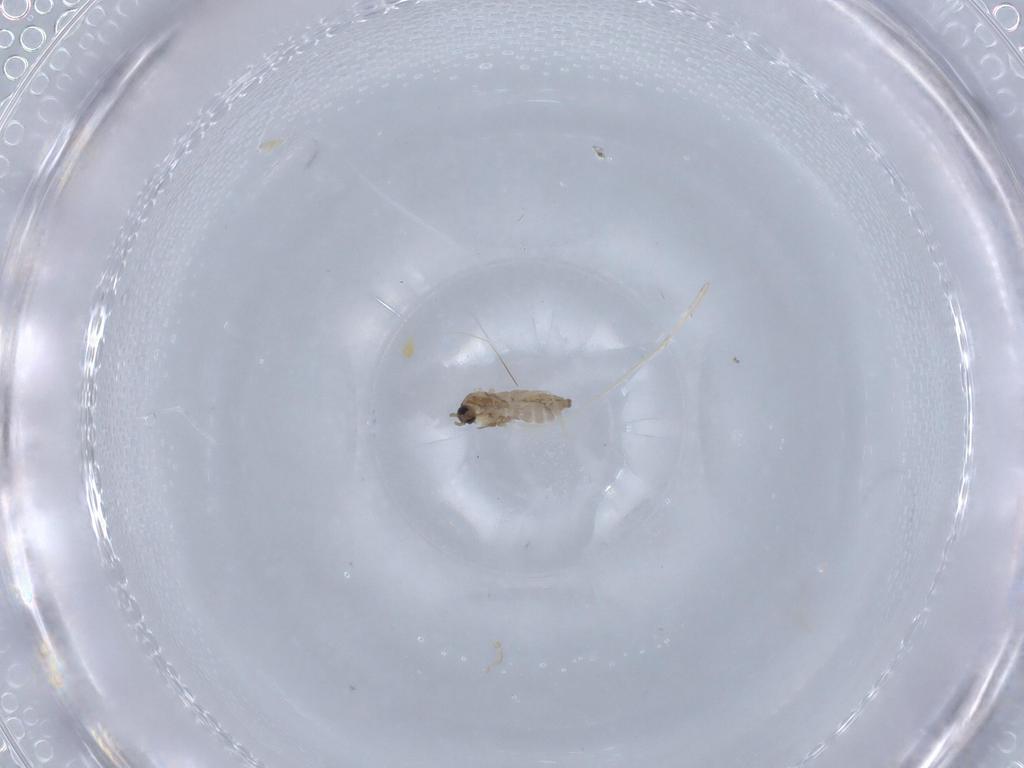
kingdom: Animalia
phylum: Arthropoda
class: Insecta
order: Diptera
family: Cecidomyiidae
